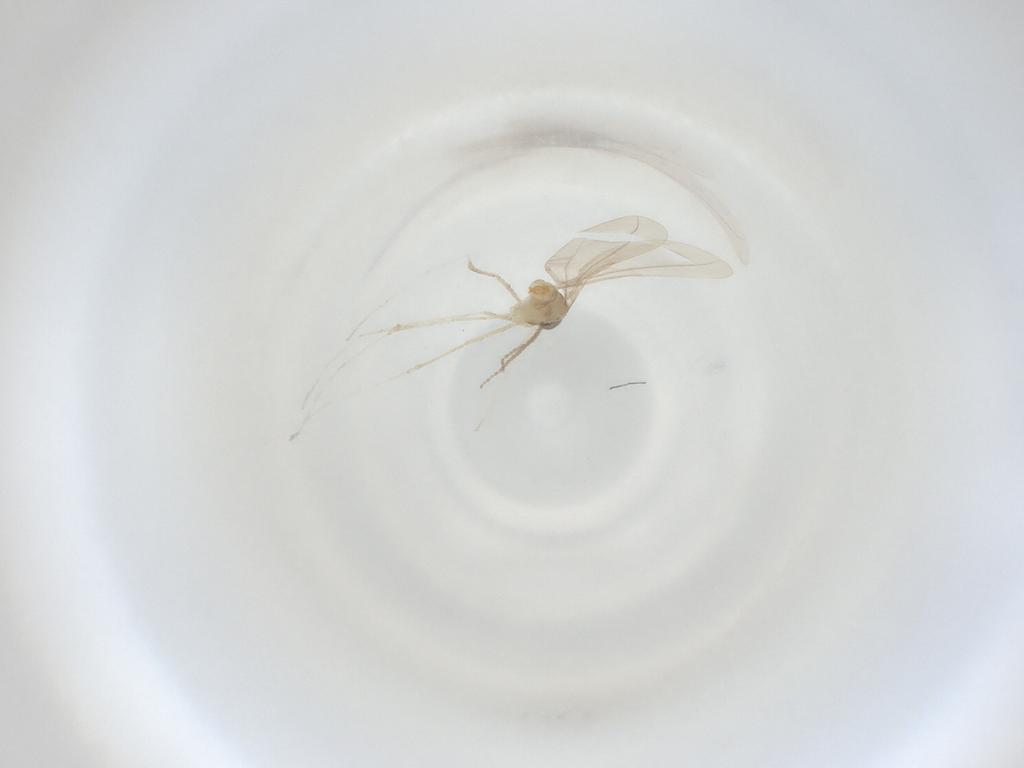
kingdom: Animalia
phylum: Arthropoda
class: Insecta
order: Diptera
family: Cecidomyiidae
